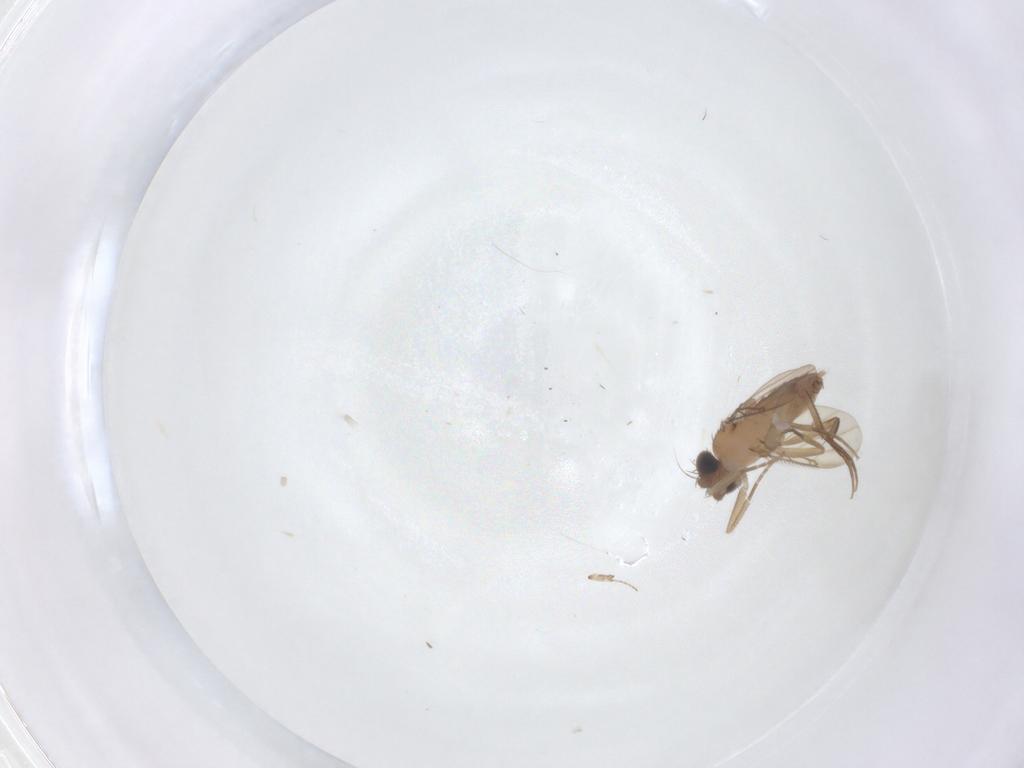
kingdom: Animalia
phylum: Arthropoda
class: Insecta
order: Diptera
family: Phoridae
